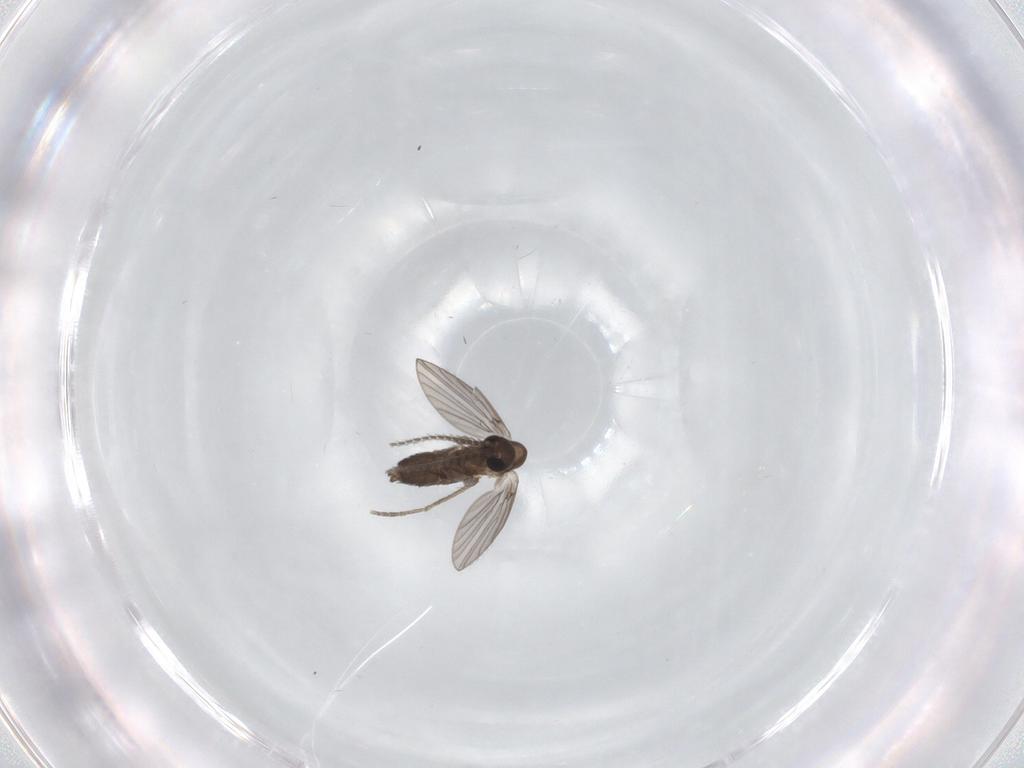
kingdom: Animalia
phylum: Arthropoda
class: Insecta
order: Diptera
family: Psychodidae
